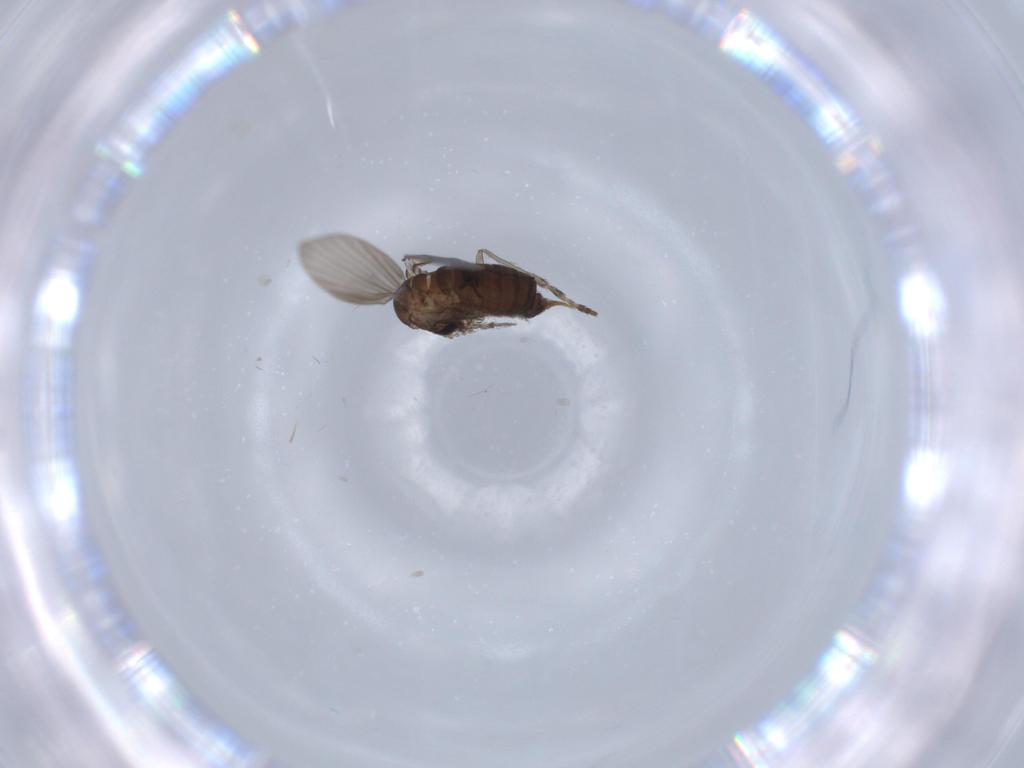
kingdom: Animalia
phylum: Arthropoda
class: Insecta
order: Diptera
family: Psychodidae
